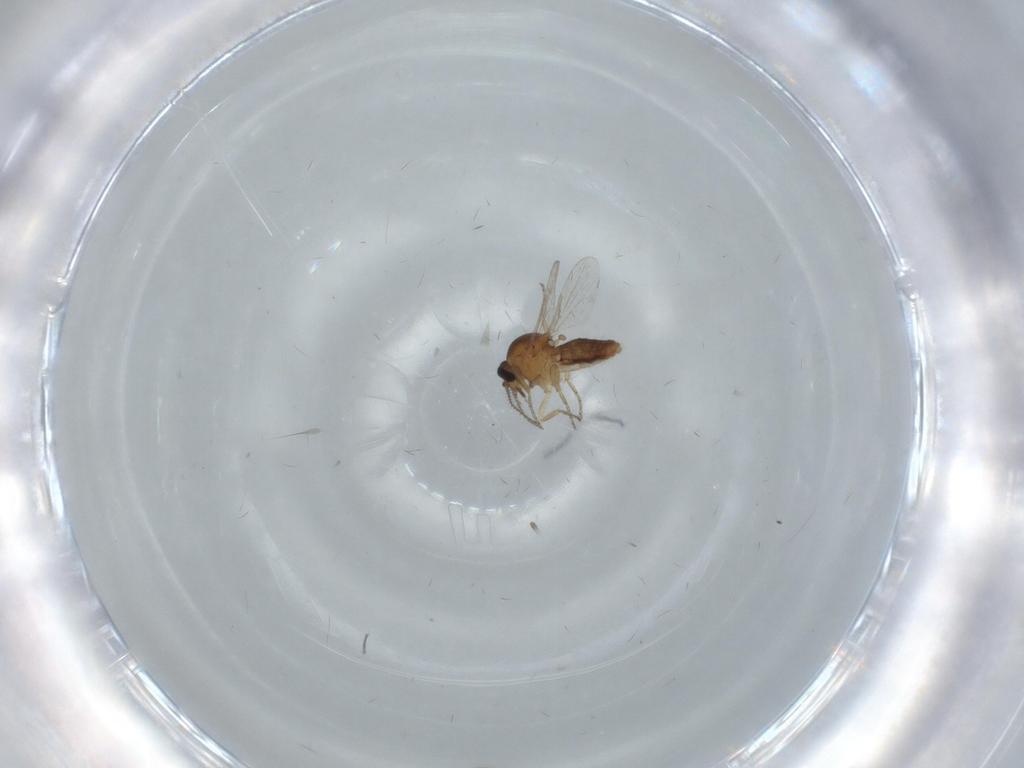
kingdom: Animalia
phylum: Arthropoda
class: Insecta
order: Diptera
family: Ceratopogonidae
